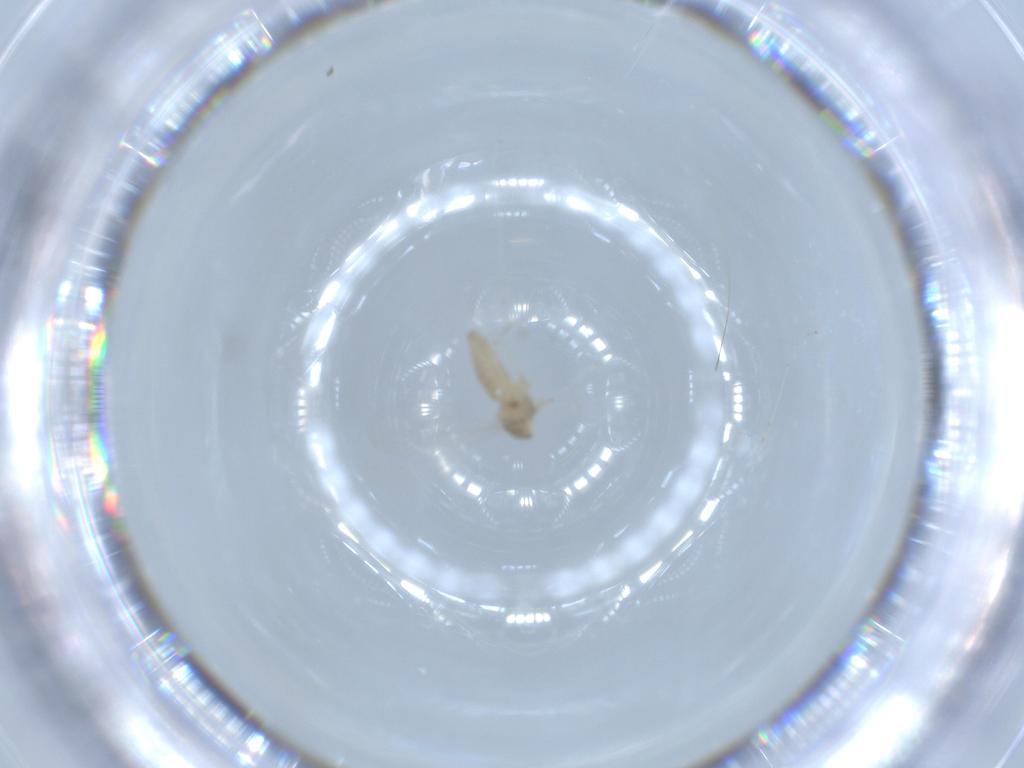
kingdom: Animalia
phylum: Arthropoda
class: Insecta
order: Diptera
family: Cecidomyiidae
